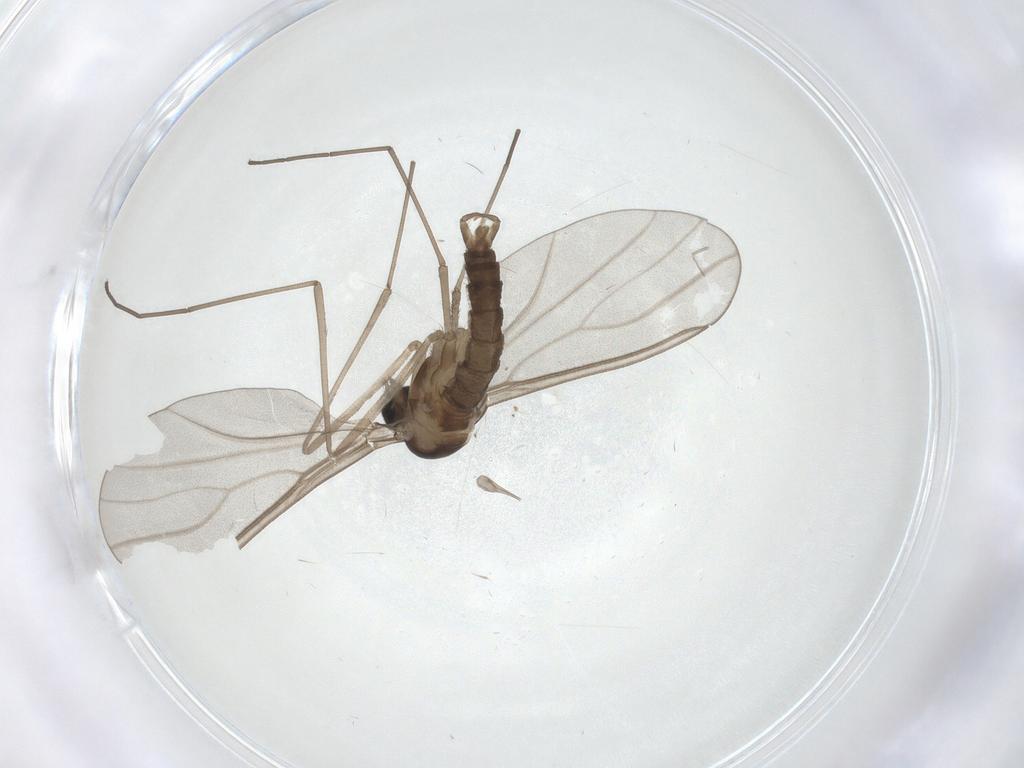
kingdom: Animalia
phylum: Arthropoda
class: Insecta
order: Diptera
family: Cecidomyiidae
